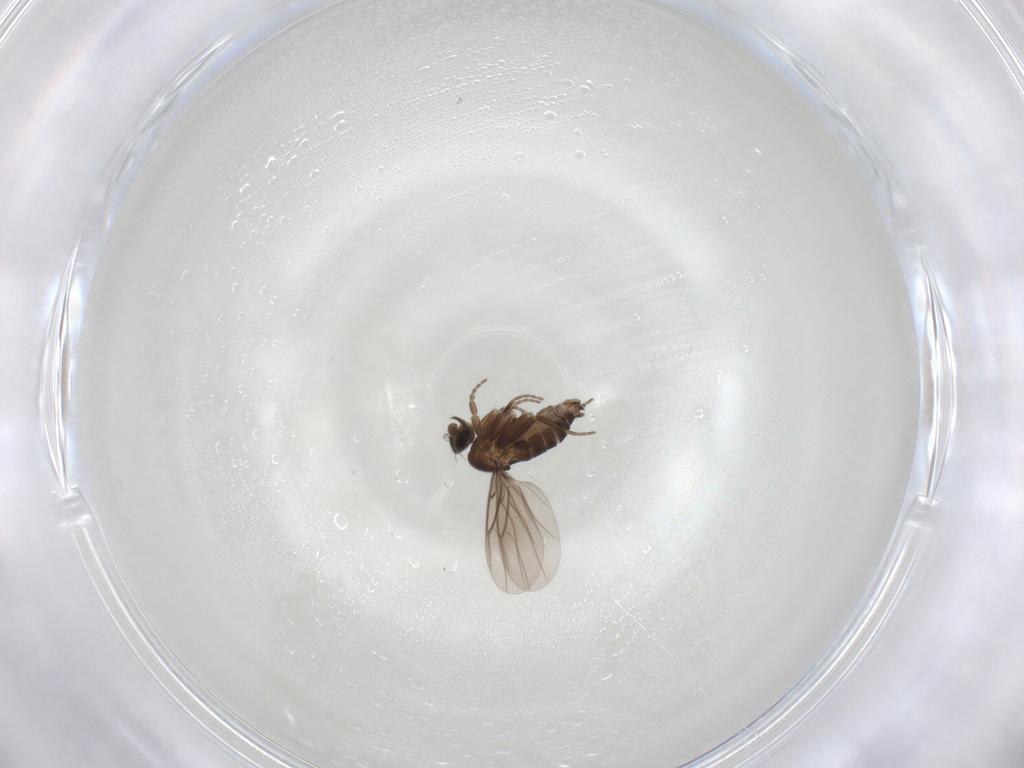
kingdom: Animalia
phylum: Arthropoda
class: Insecta
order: Diptera
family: Phoridae
